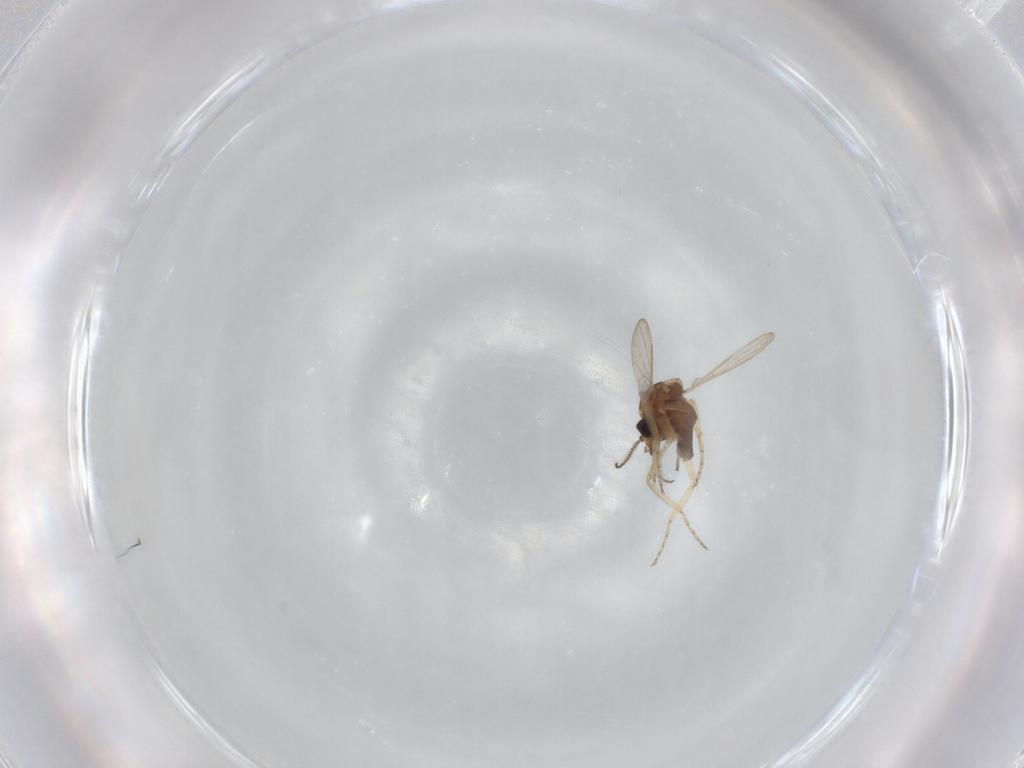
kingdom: Animalia
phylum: Arthropoda
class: Insecta
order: Diptera
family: Ceratopogonidae
